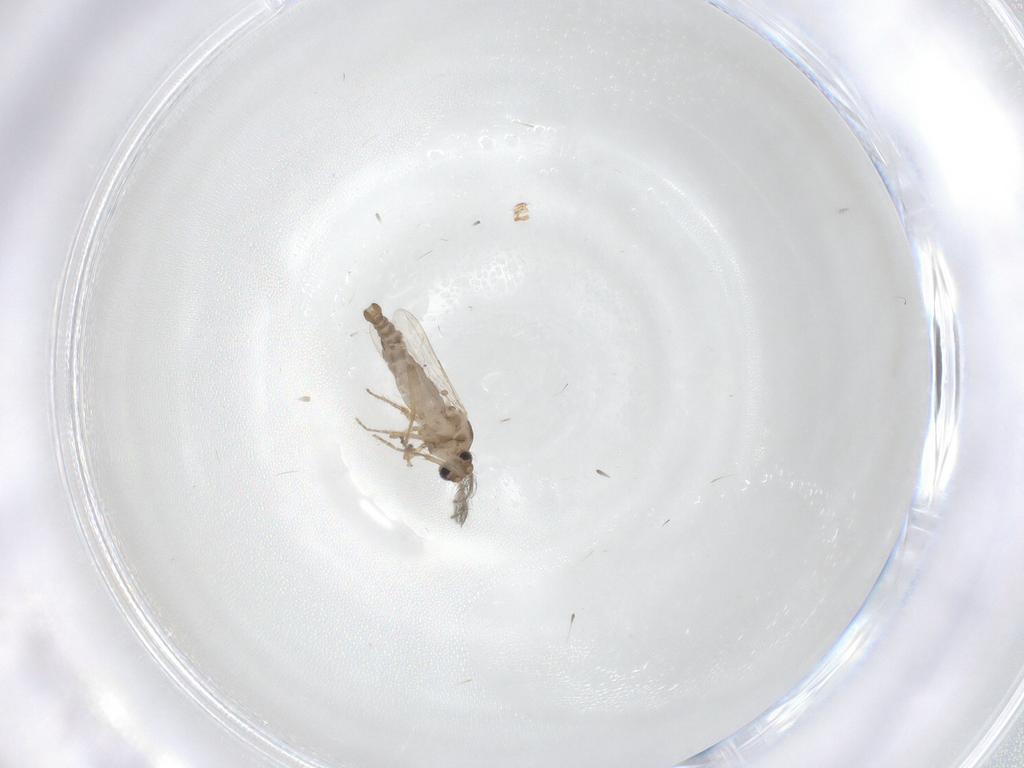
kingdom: Animalia
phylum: Arthropoda
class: Insecta
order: Diptera
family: Ceratopogonidae
